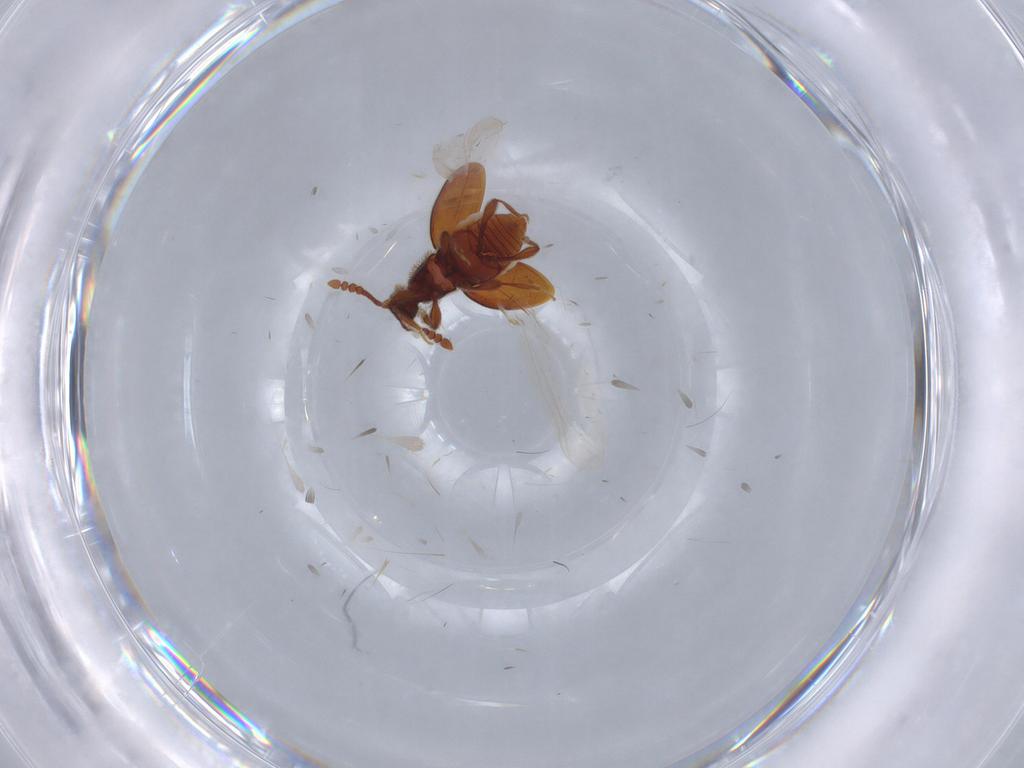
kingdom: Animalia
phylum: Arthropoda
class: Insecta
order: Coleoptera
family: Staphylinidae
